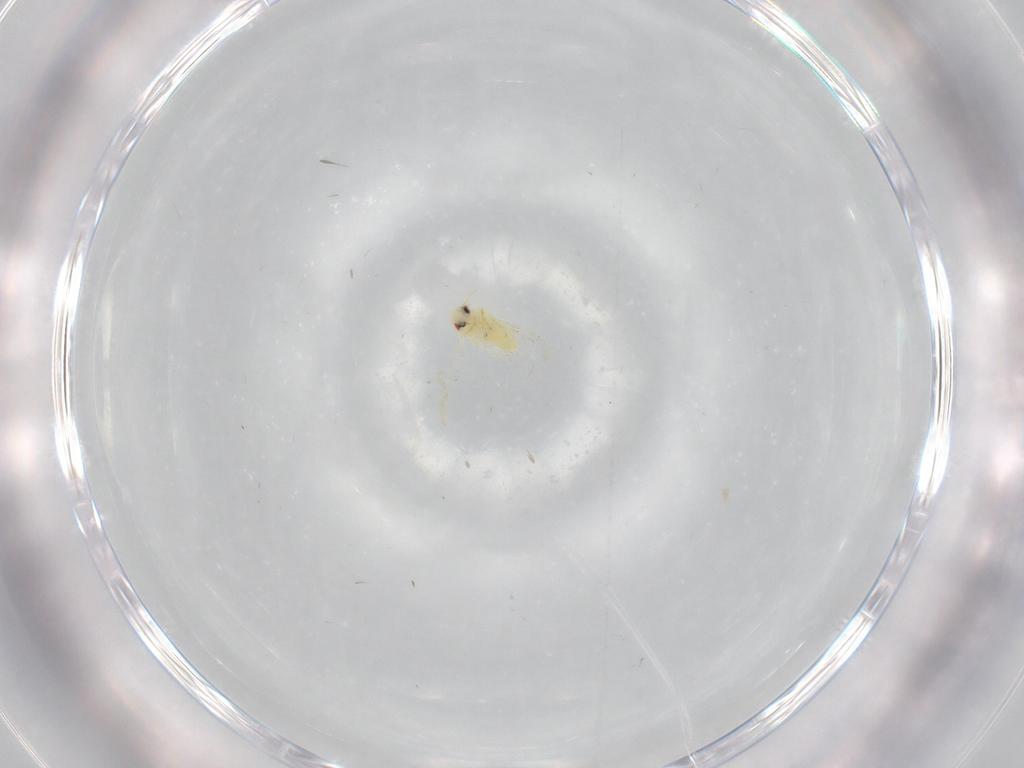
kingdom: Animalia
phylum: Arthropoda
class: Insecta
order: Hemiptera
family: Aleyrodidae
